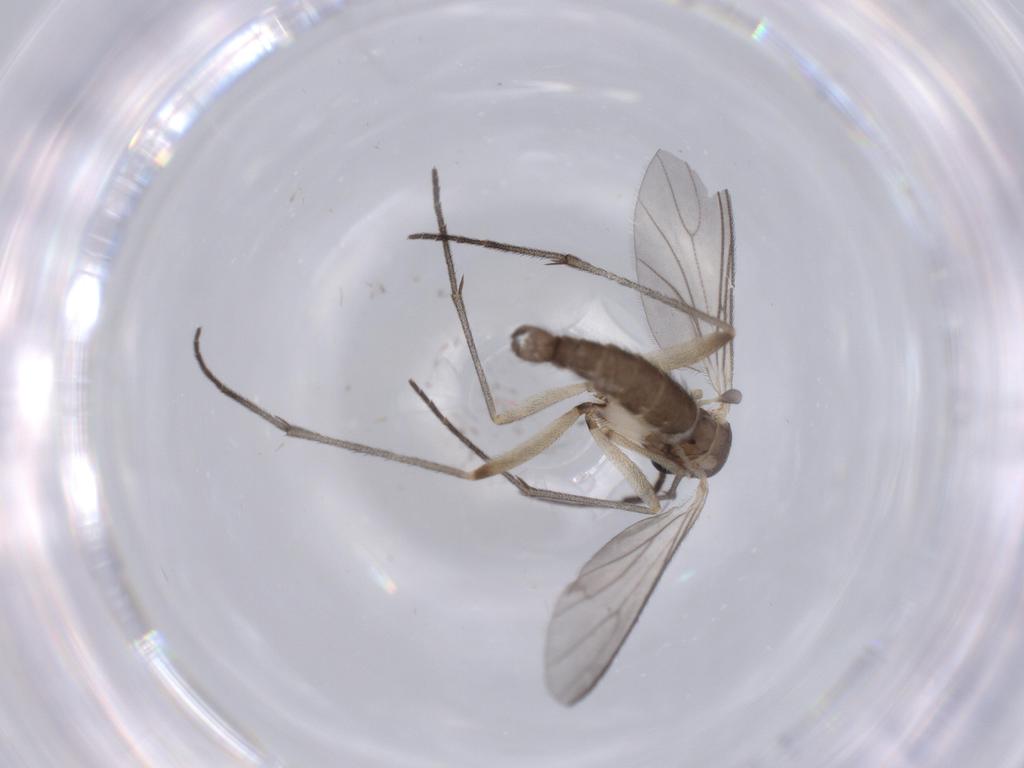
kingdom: Animalia
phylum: Arthropoda
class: Insecta
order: Diptera
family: Sciaridae
